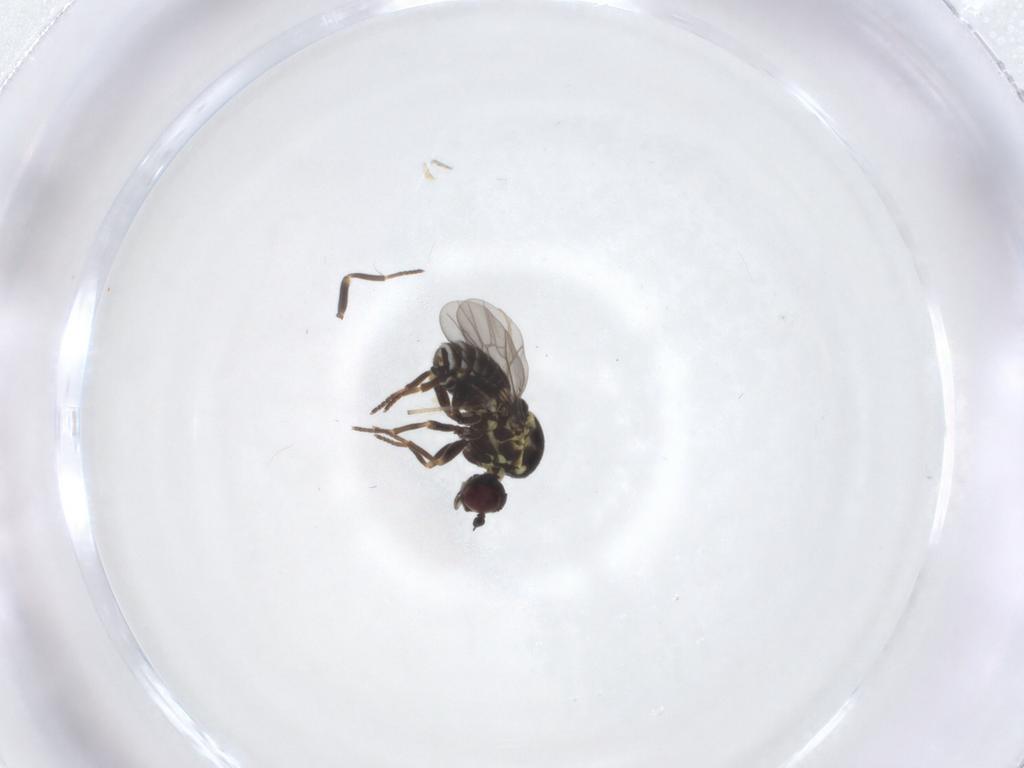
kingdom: Animalia
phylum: Arthropoda
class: Insecta
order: Diptera
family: Bombyliidae
